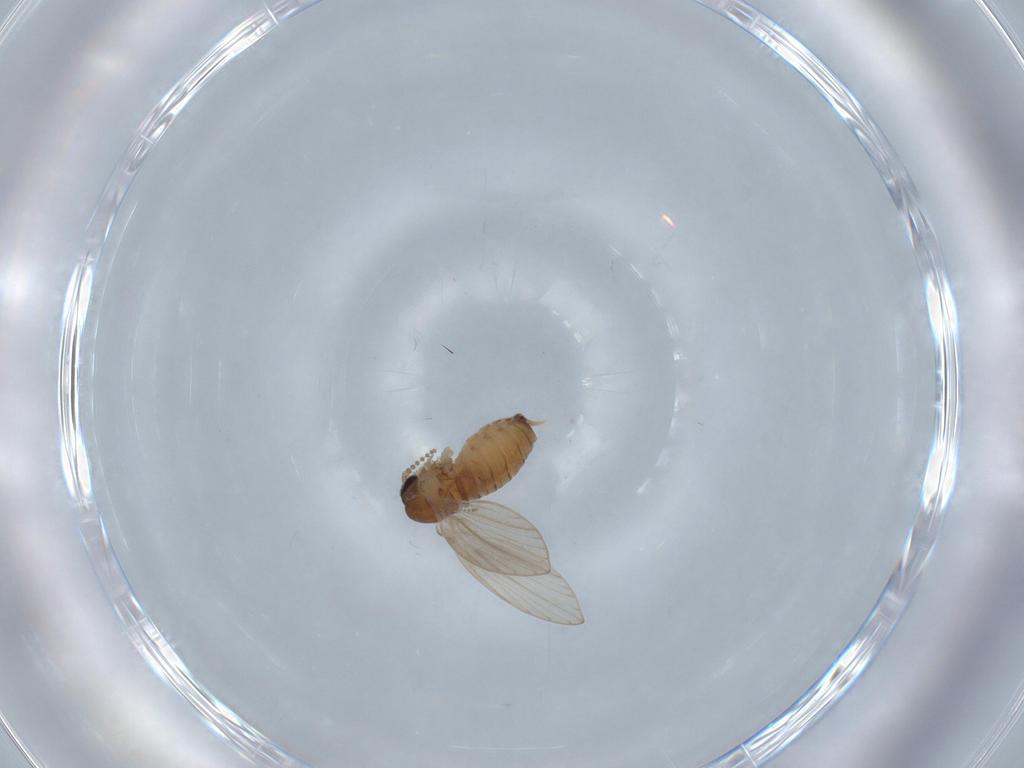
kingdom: Animalia
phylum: Arthropoda
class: Insecta
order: Diptera
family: Psychodidae
